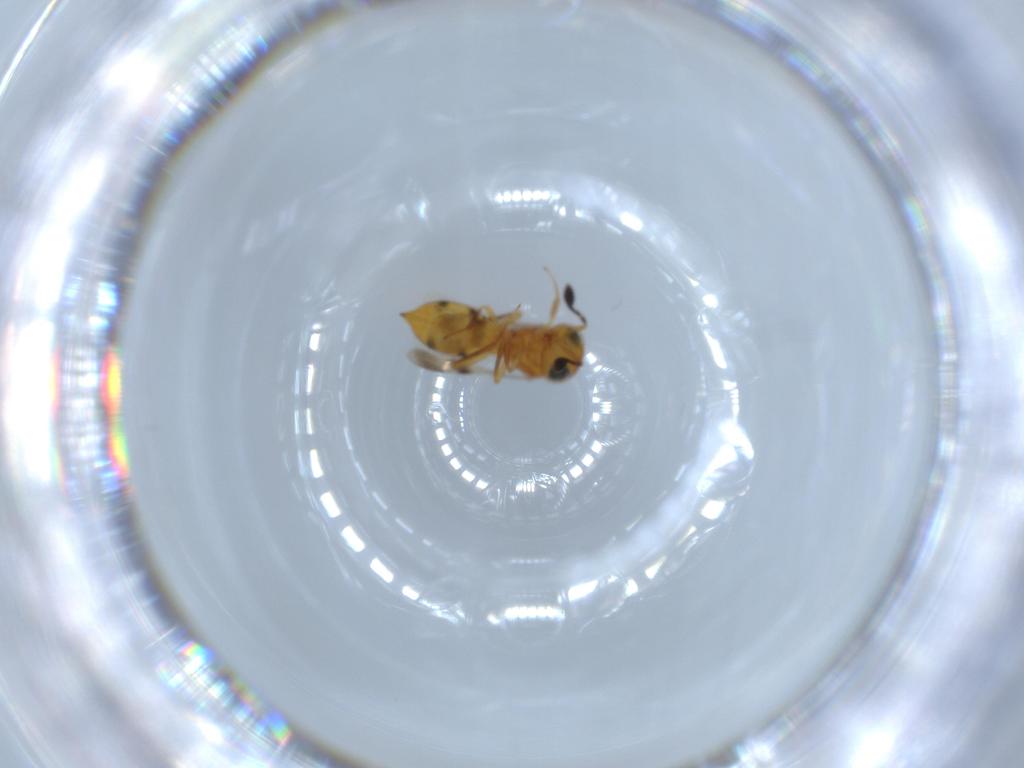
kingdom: Animalia
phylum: Arthropoda
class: Insecta
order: Hymenoptera
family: Scelionidae
